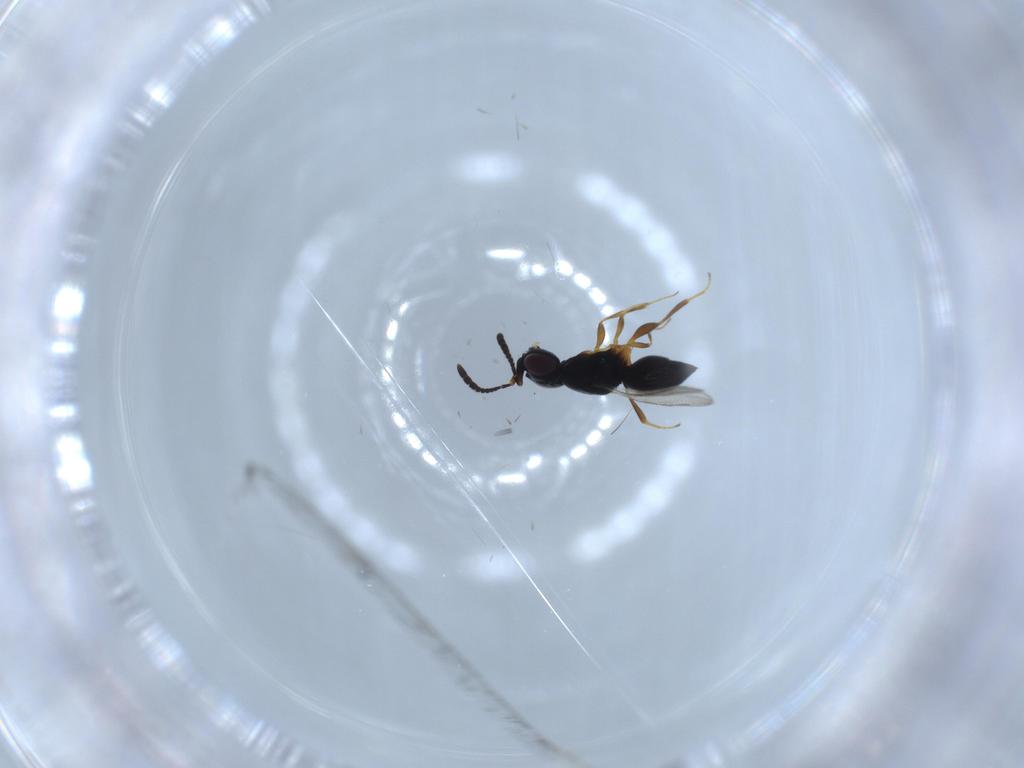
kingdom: Animalia
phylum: Arthropoda
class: Insecta
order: Hymenoptera
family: Ceraphronidae
